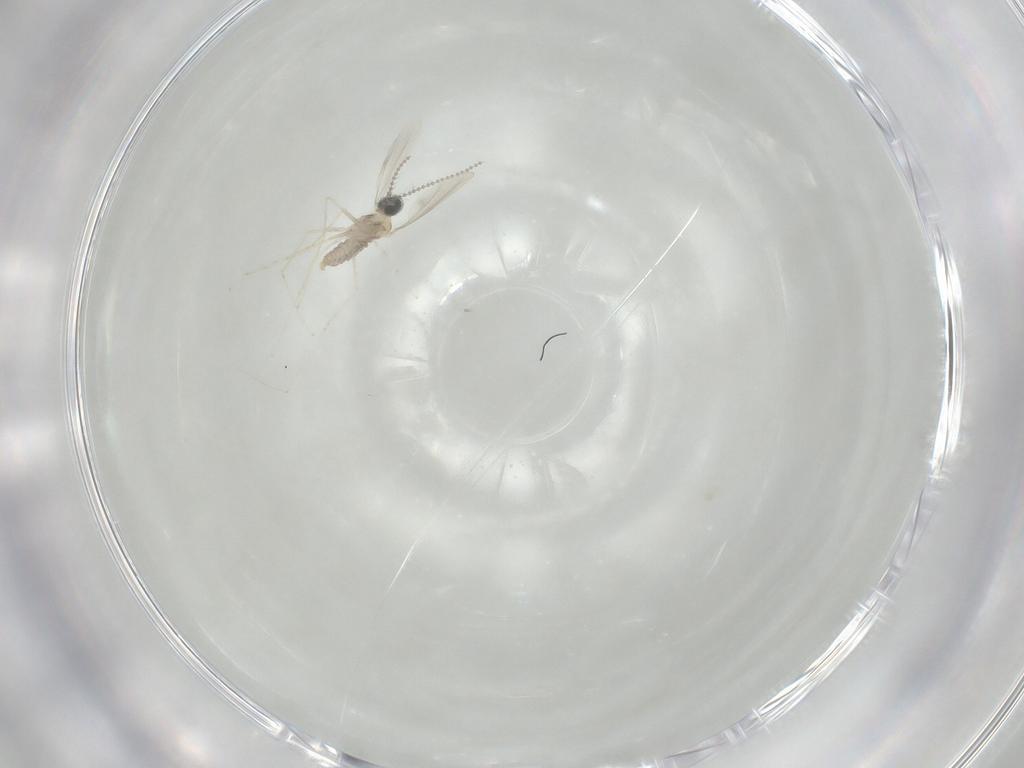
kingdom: Animalia
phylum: Arthropoda
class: Insecta
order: Diptera
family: Cecidomyiidae
